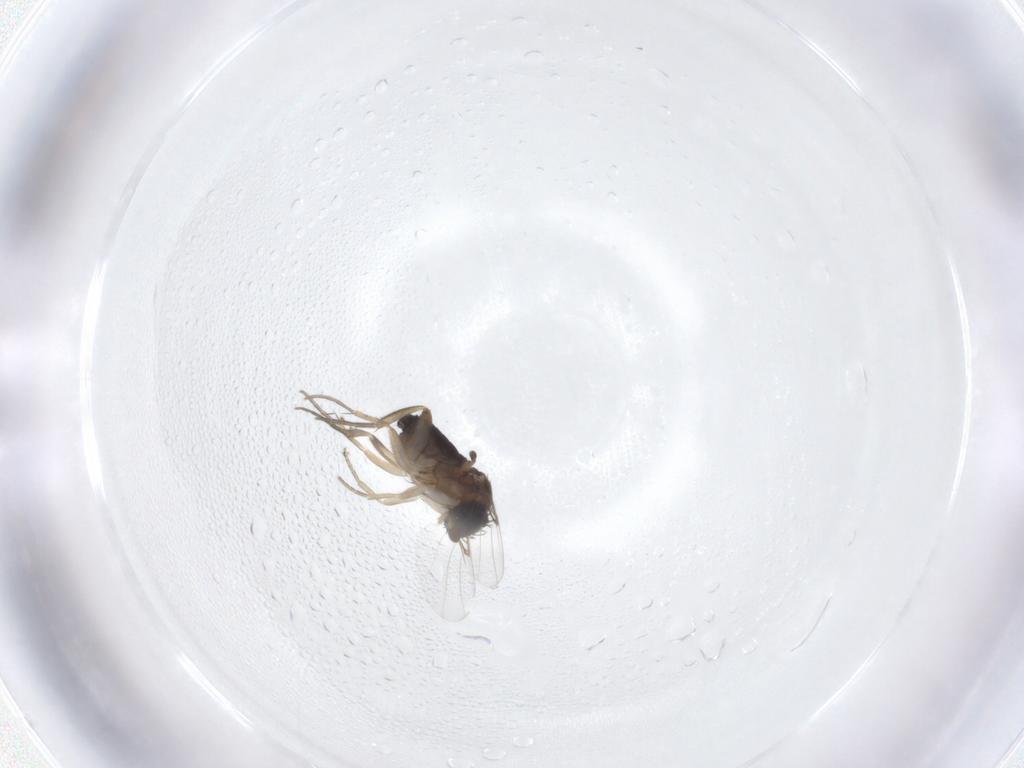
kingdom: Animalia
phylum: Arthropoda
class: Insecta
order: Diptera
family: Phoridae
